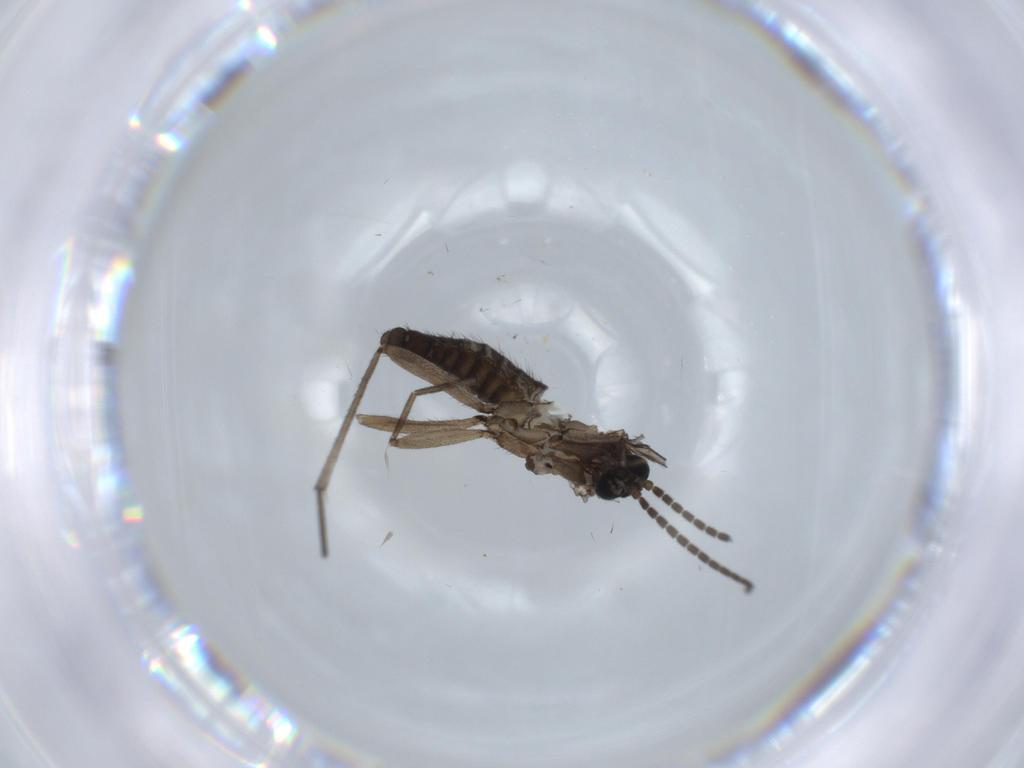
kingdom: Animalia
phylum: Arthropoda
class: Insecta
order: Diptera
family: Sciaridae
